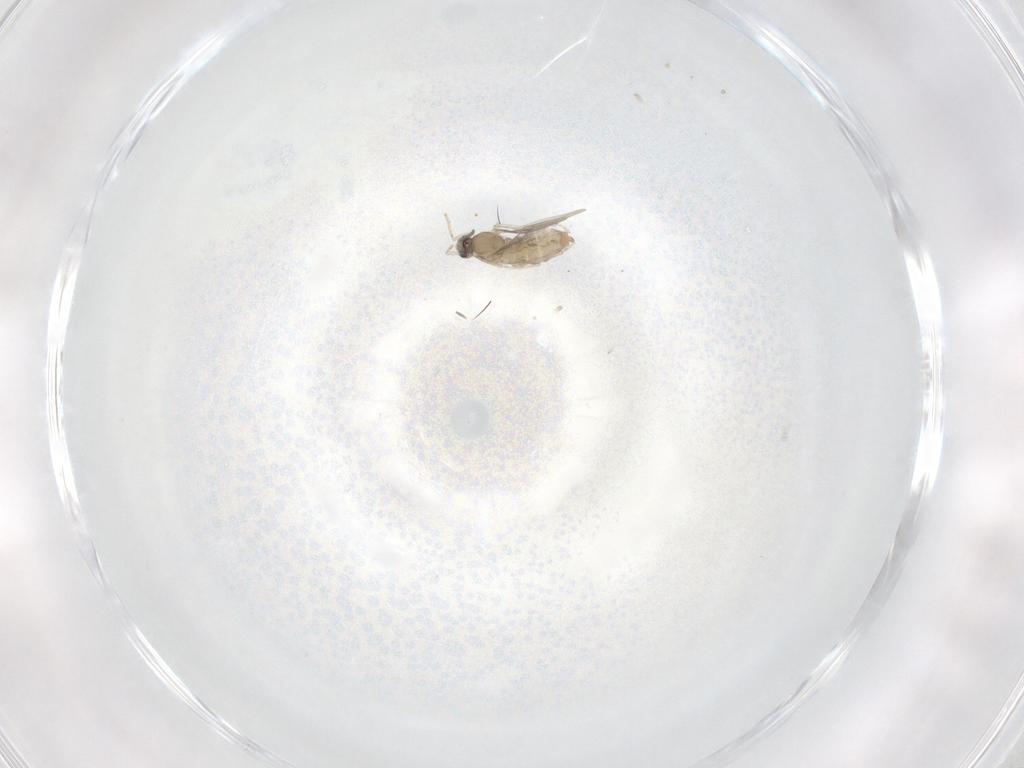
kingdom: Animalia
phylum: Arthropoda
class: Insecta
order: Diptera
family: Cecidomyiidae
